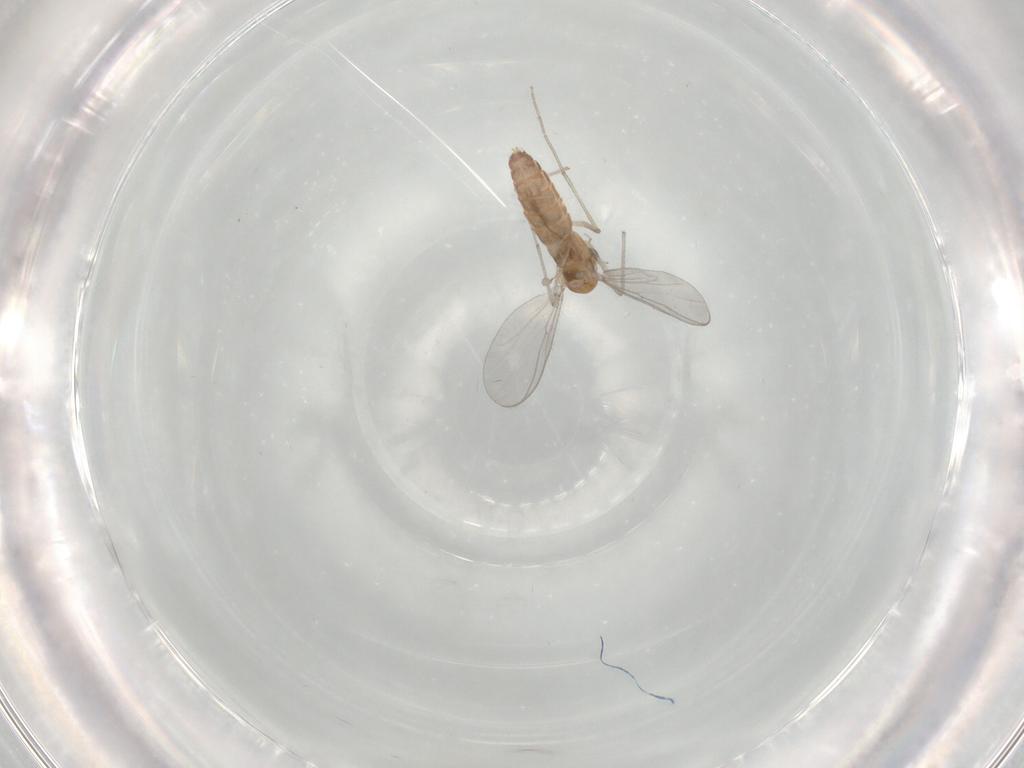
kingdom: Animalia
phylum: Arthropoda
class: Insecta
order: Diptera
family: Chironomidae
